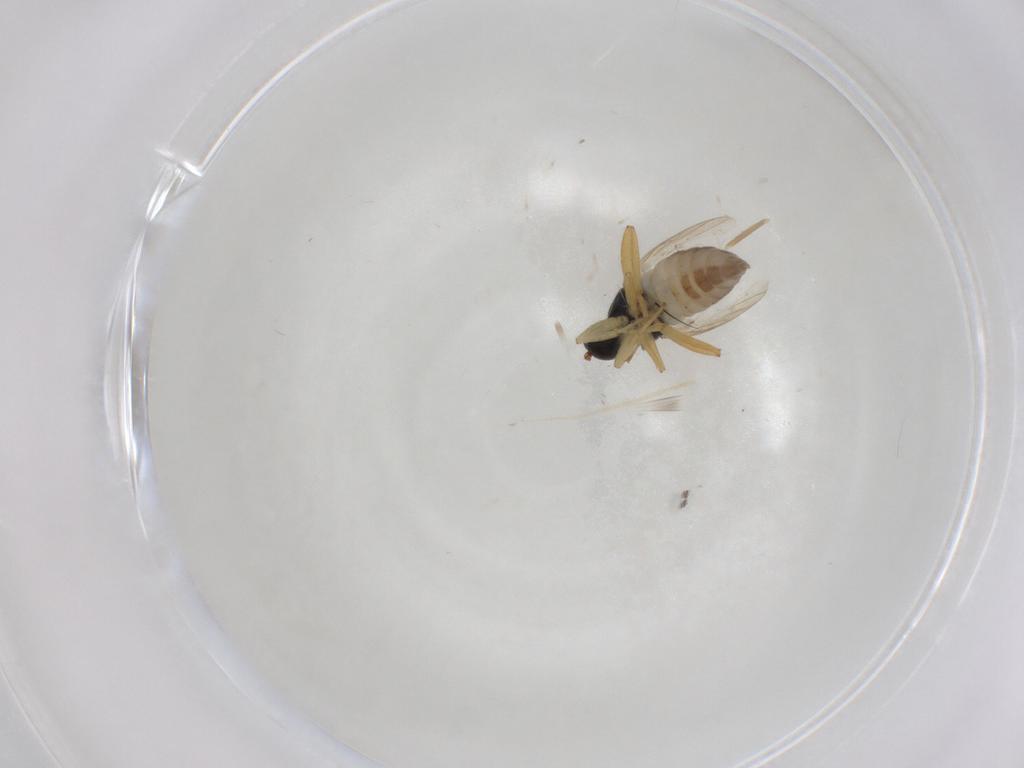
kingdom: Animalia
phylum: Arthropoda
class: Insecta
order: Diptera
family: Hybotidae
